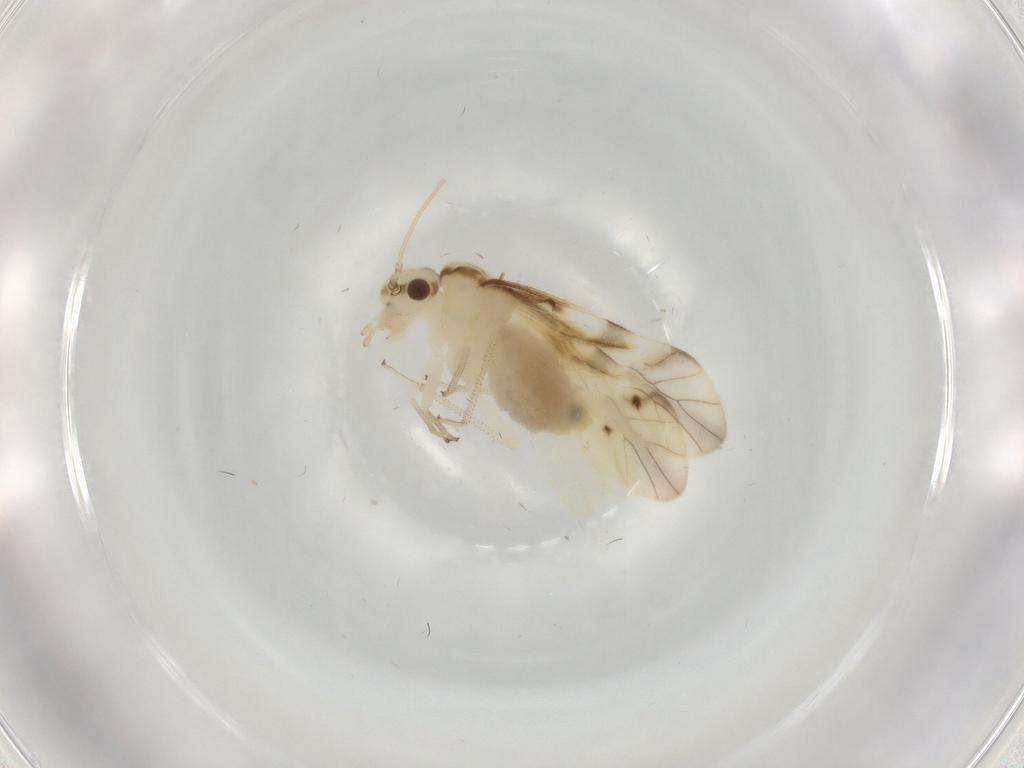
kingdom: Animalia
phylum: Arthropoda
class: Insecta
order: Psocodea
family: Caeciliusidae
